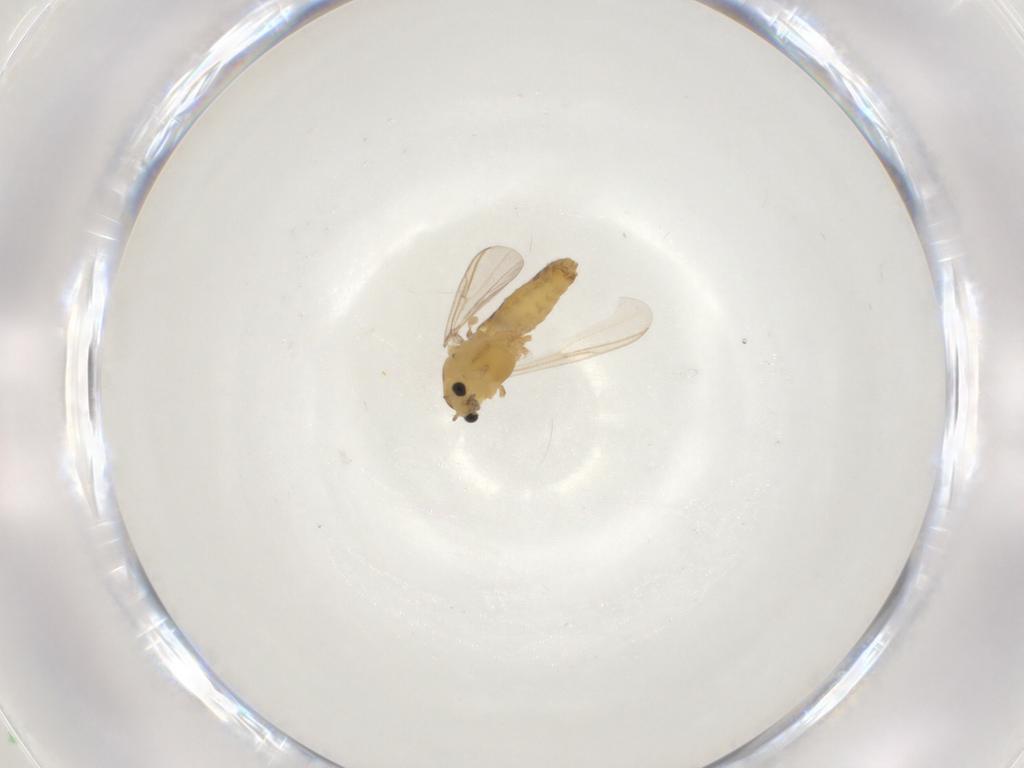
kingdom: Animalia
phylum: Arthropoda
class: Insecta
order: Diptera
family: Chironomidae
